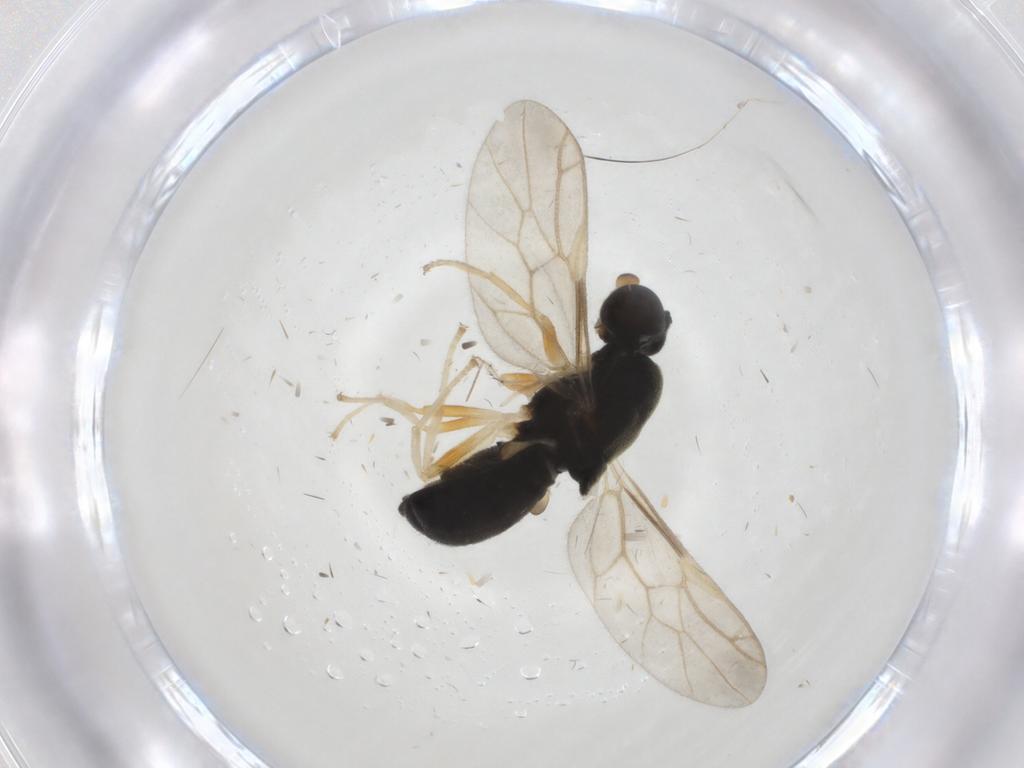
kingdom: Animalia
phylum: Arthropoda
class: Insecta
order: Diptera
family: Stratiomyidae
